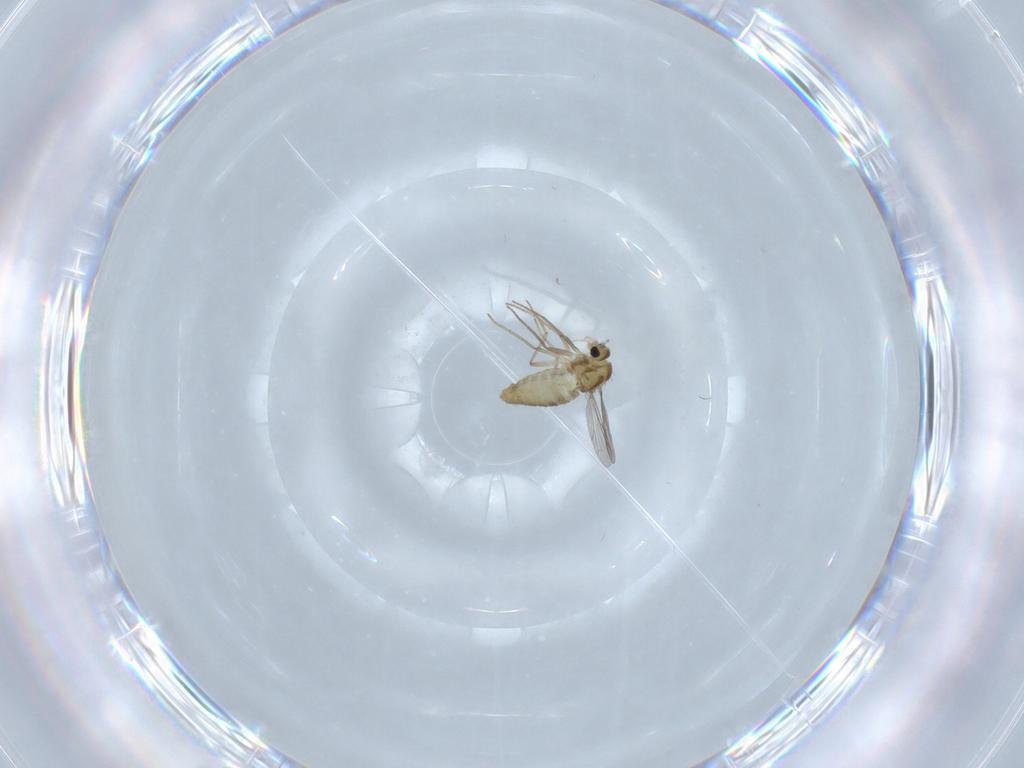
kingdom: Animalia
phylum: Arthropoda
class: Insecta
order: Diptera
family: Chironomidae
